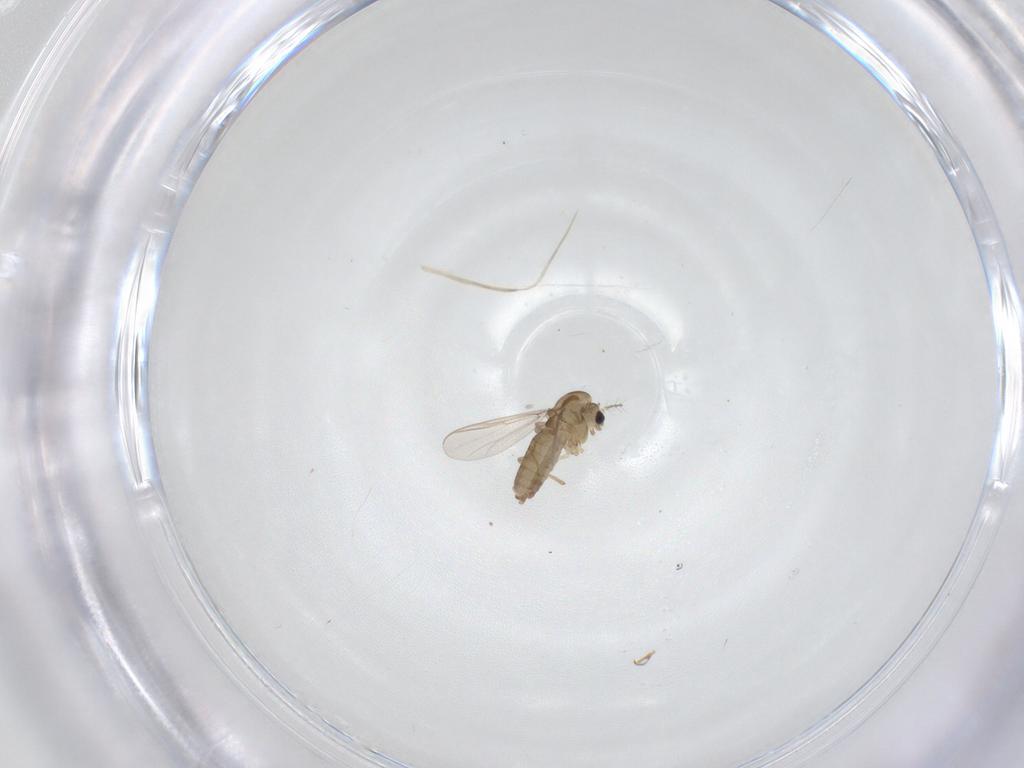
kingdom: Animalia
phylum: Arthropoda
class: Insecta
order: Diptera
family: Chironomidae
